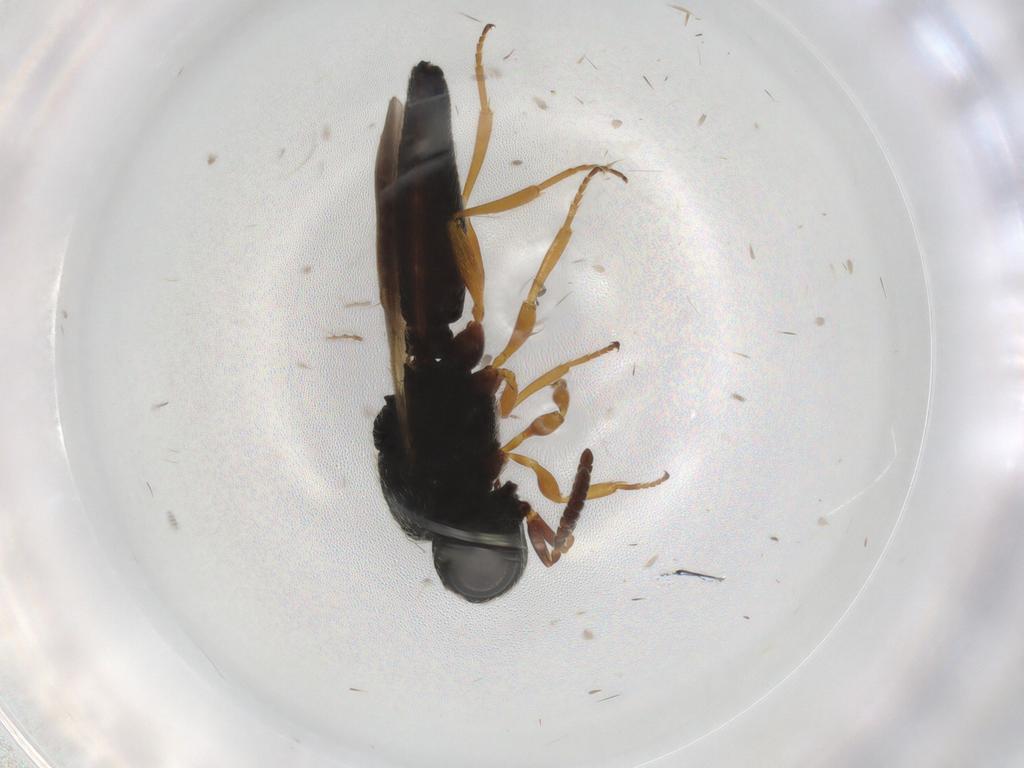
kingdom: Animalia
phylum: Arthropoda
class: Insecta
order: Hymenoptera
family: Scelionidae
